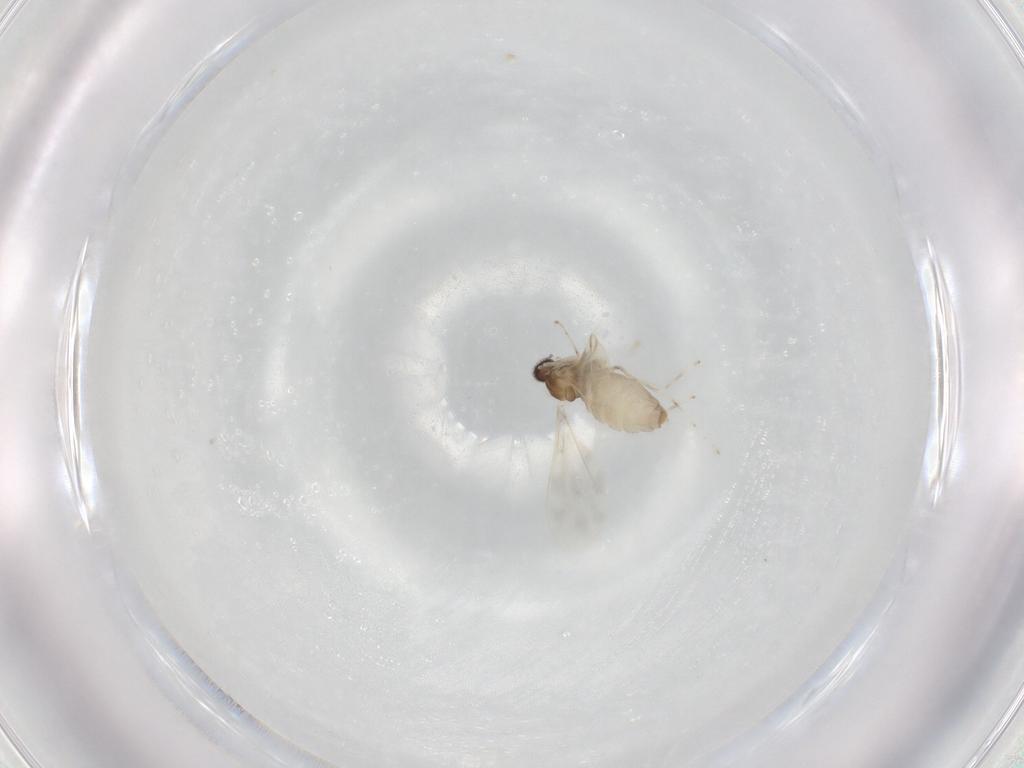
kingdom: Animalia
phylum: Arthropoda
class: Insecta
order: Diptera
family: Cecidomyiidae
